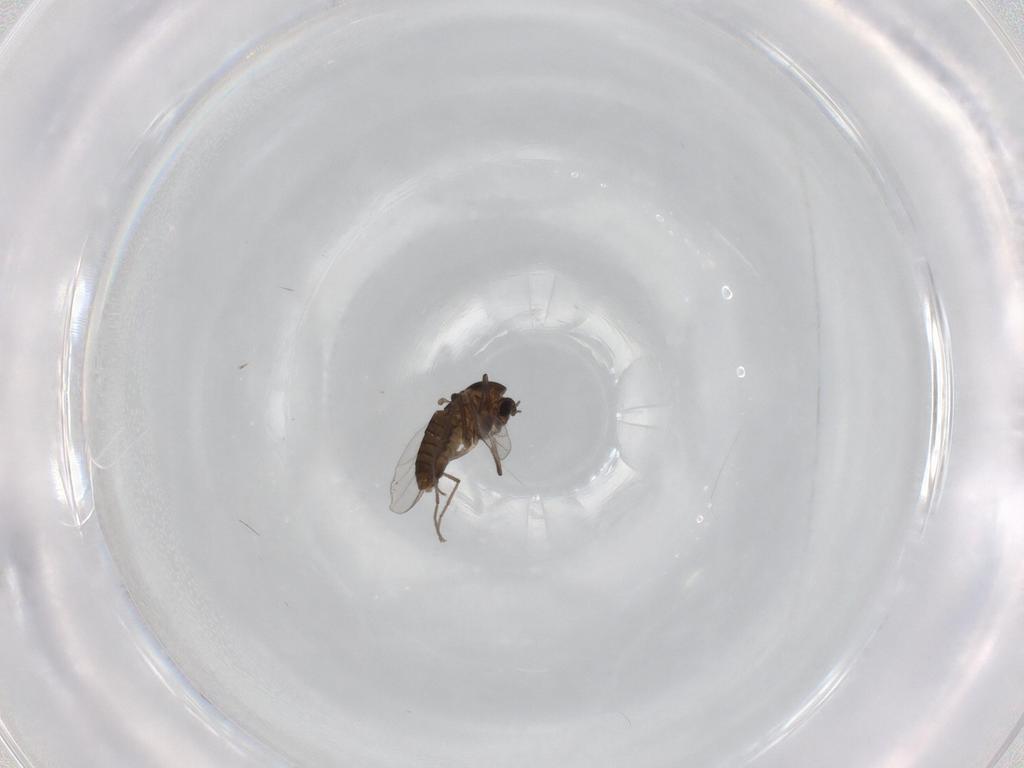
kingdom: Animalia
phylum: Arthropoda
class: Insecta
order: Diptera
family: Chironomidae
